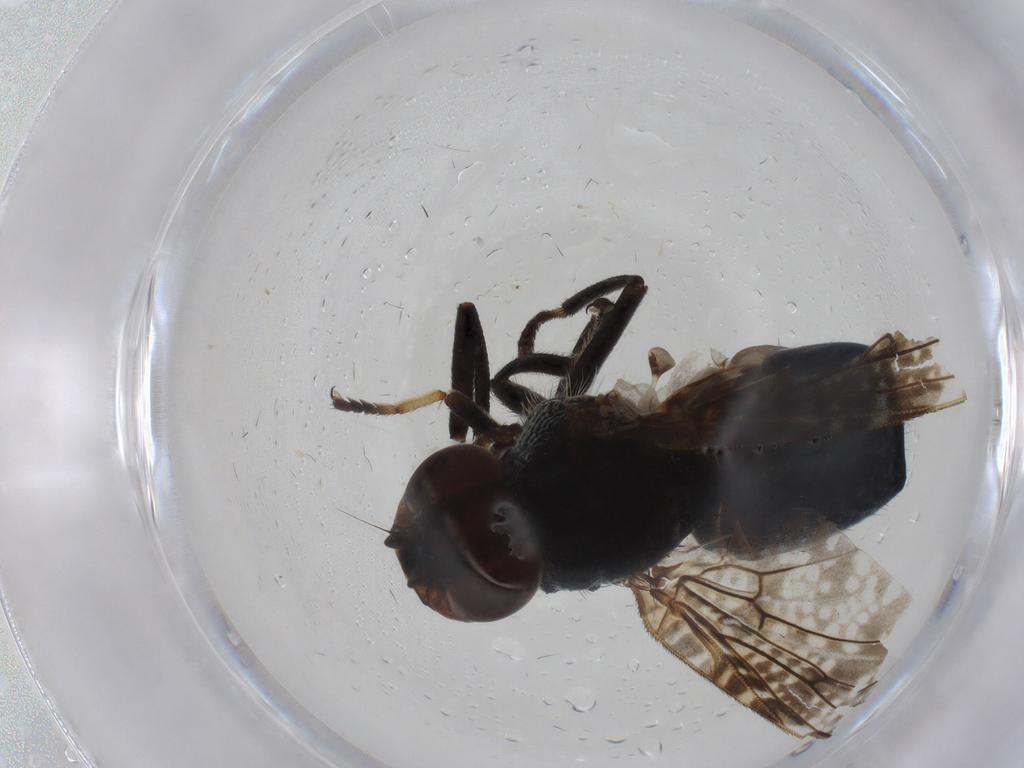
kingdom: Animalia
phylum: Arthropoda
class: Insecta
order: Diptera
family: Platystomatidae
